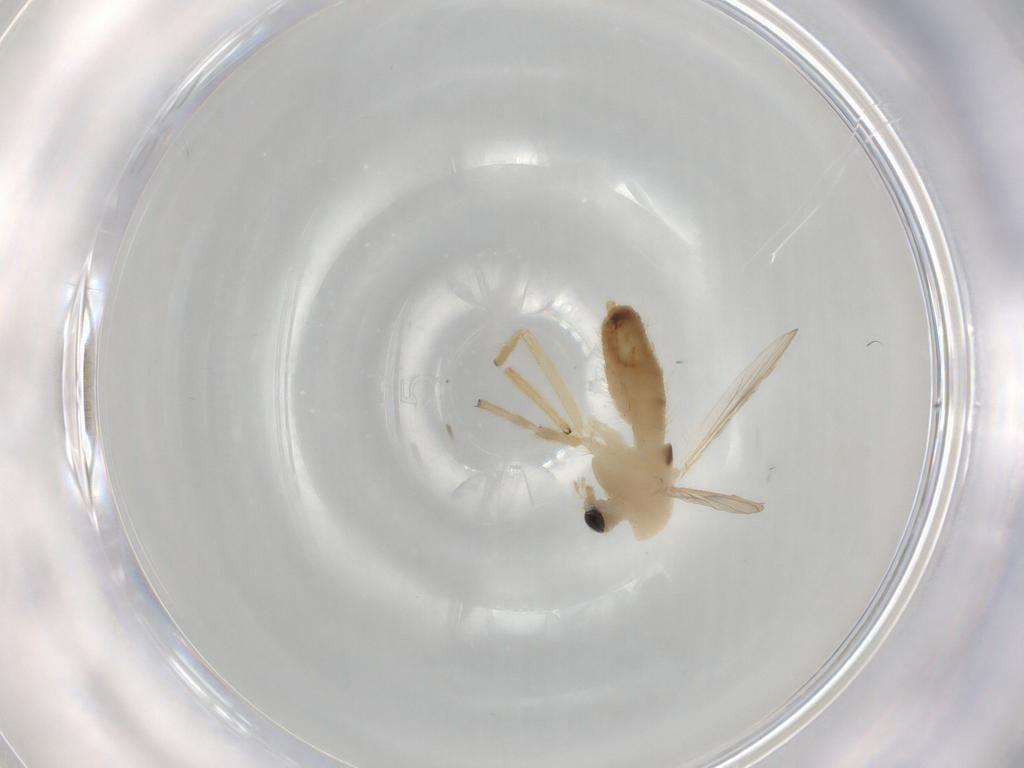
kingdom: Animalia
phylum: Arthropoda
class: Insecta
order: Diptera
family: Chironomidae
